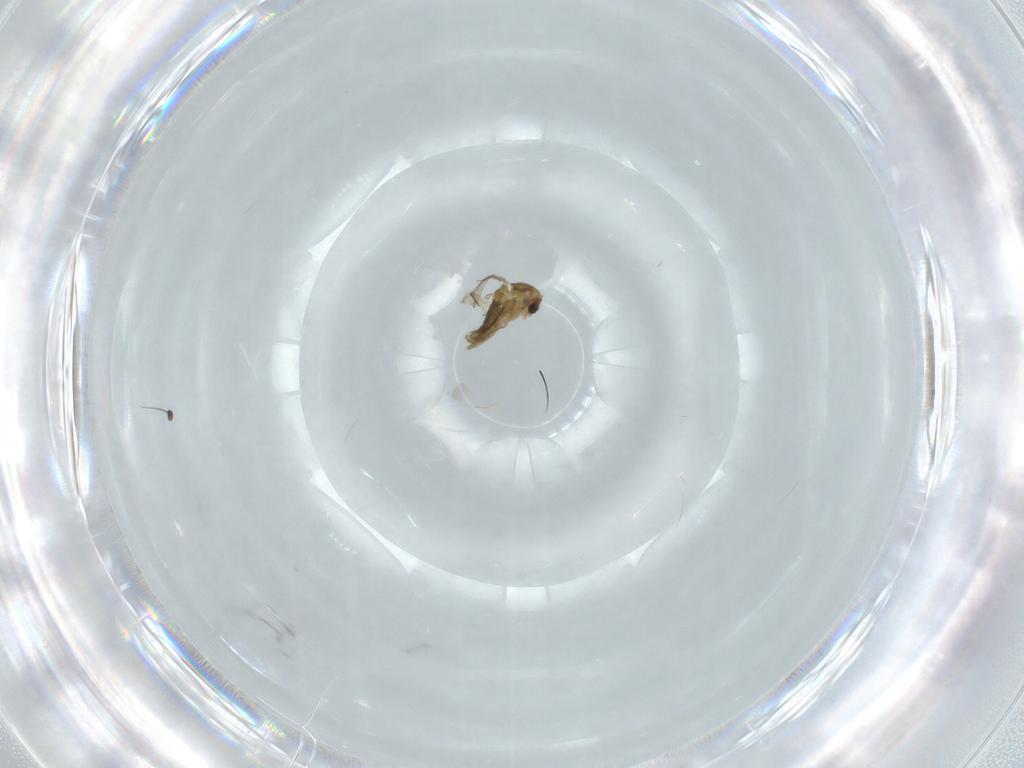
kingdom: Animalia
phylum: Arthropoda
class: Insecta
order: Diptera
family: Chironomidae
